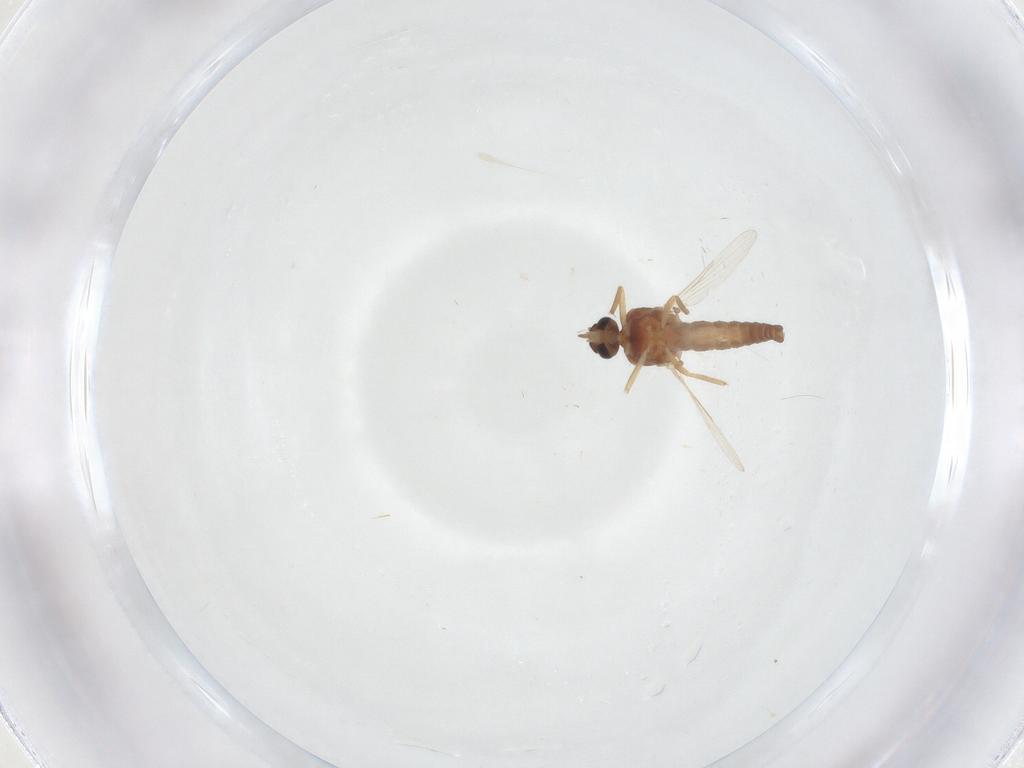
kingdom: Animalia
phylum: Arthropoda
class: Insecta
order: Diptera
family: Ceratopogonidae
